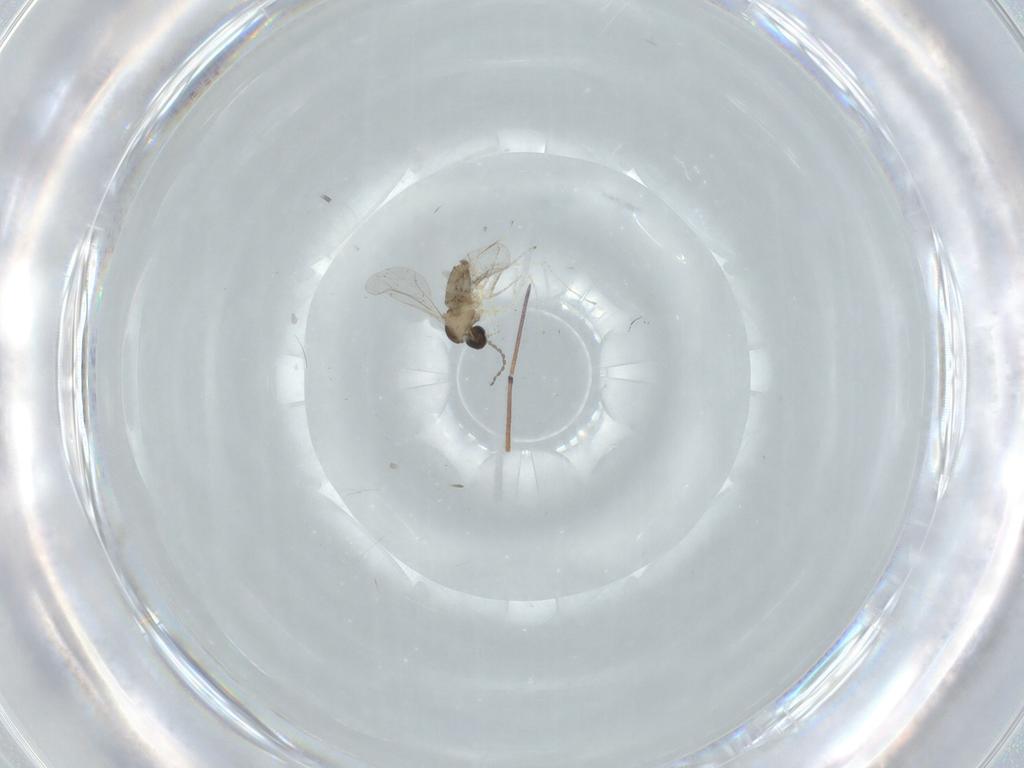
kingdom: Animalia
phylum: Arthropoda
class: Insecta
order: Diptera
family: Cecidomyiidae
